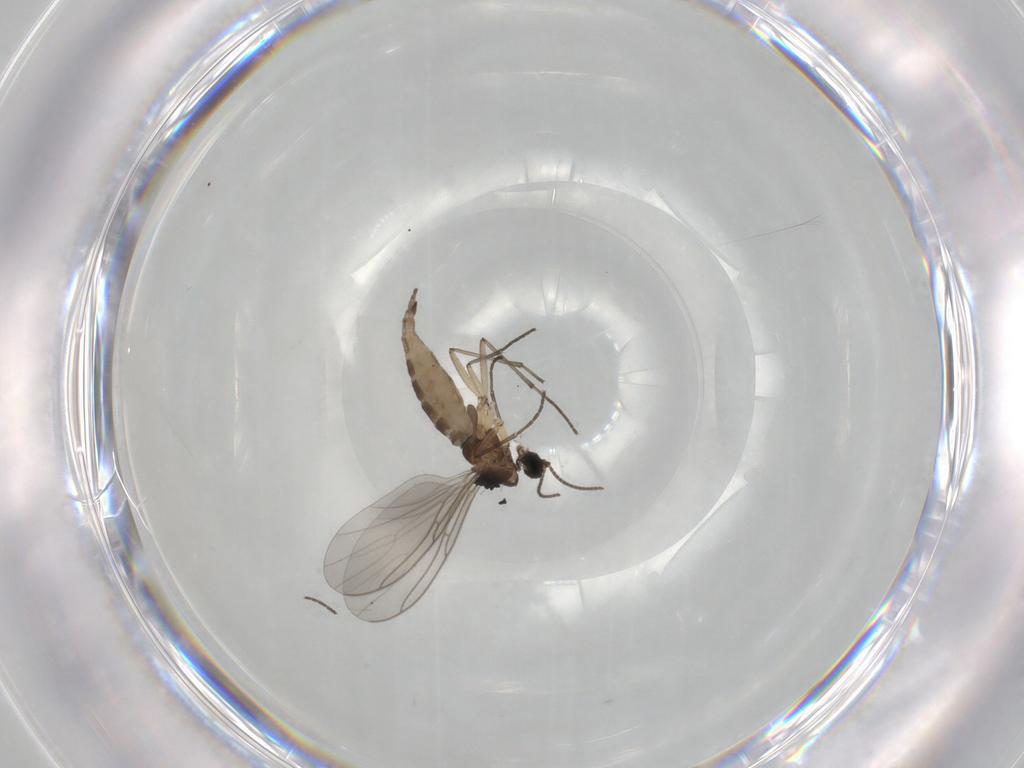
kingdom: Animalia
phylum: Arthropoda
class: Insecta
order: Diptera
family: Sciaridae
